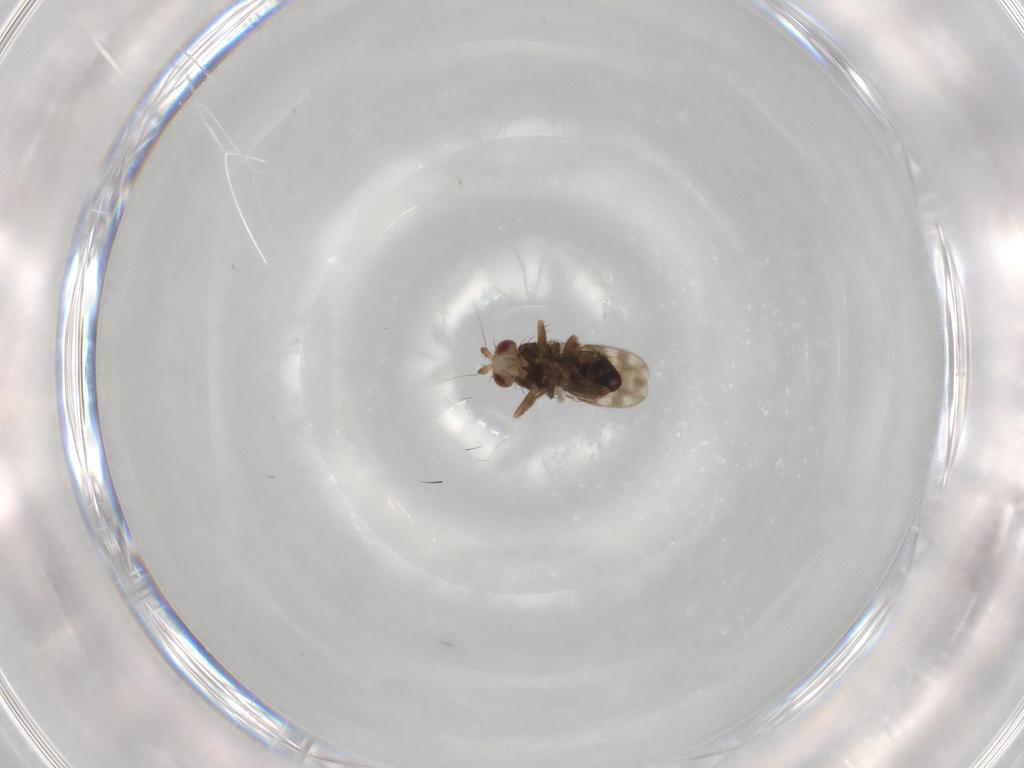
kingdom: Animalia
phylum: Arthropoda
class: Insecta
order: Diptera
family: Sphaeroceridae
